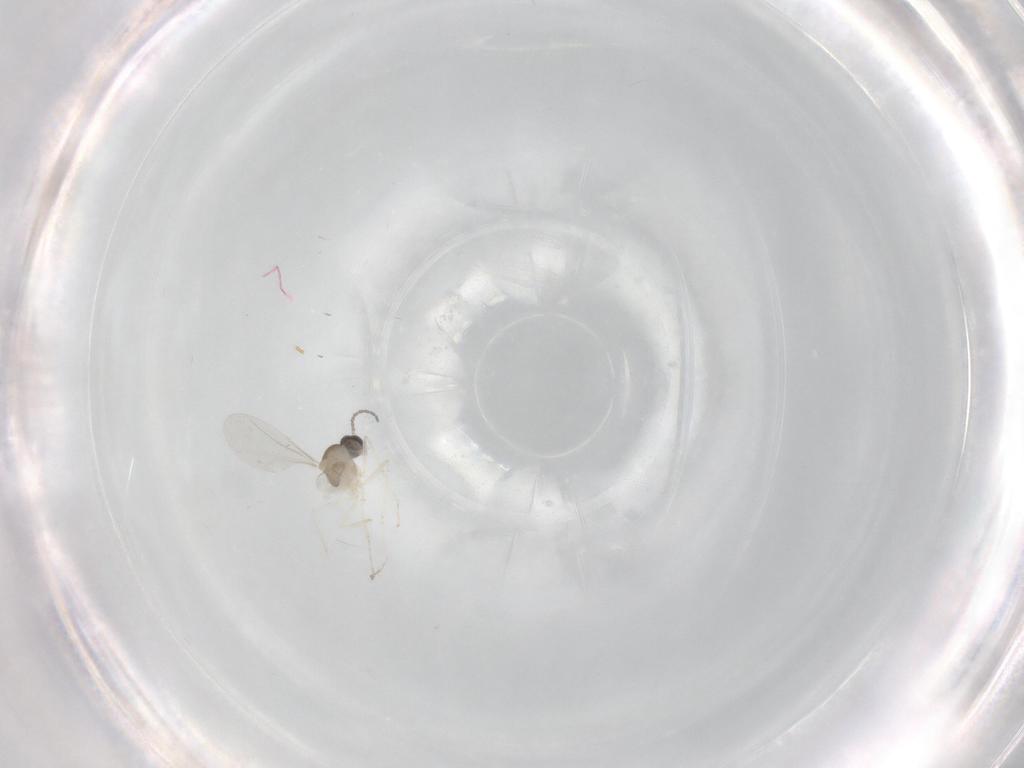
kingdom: Animalia
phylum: Arthropoda
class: Insecta
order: Diptera
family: Cecidomyiidae
